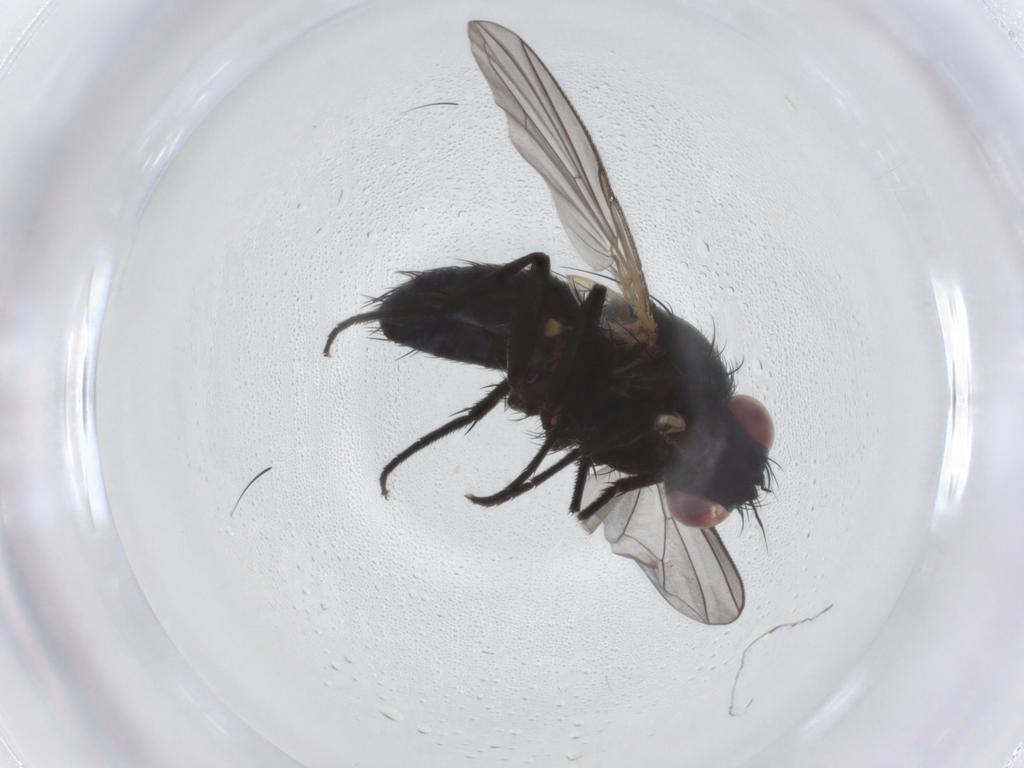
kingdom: Animalia
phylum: Arthropoda
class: Insecta
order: Diptera
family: Tachinidae
